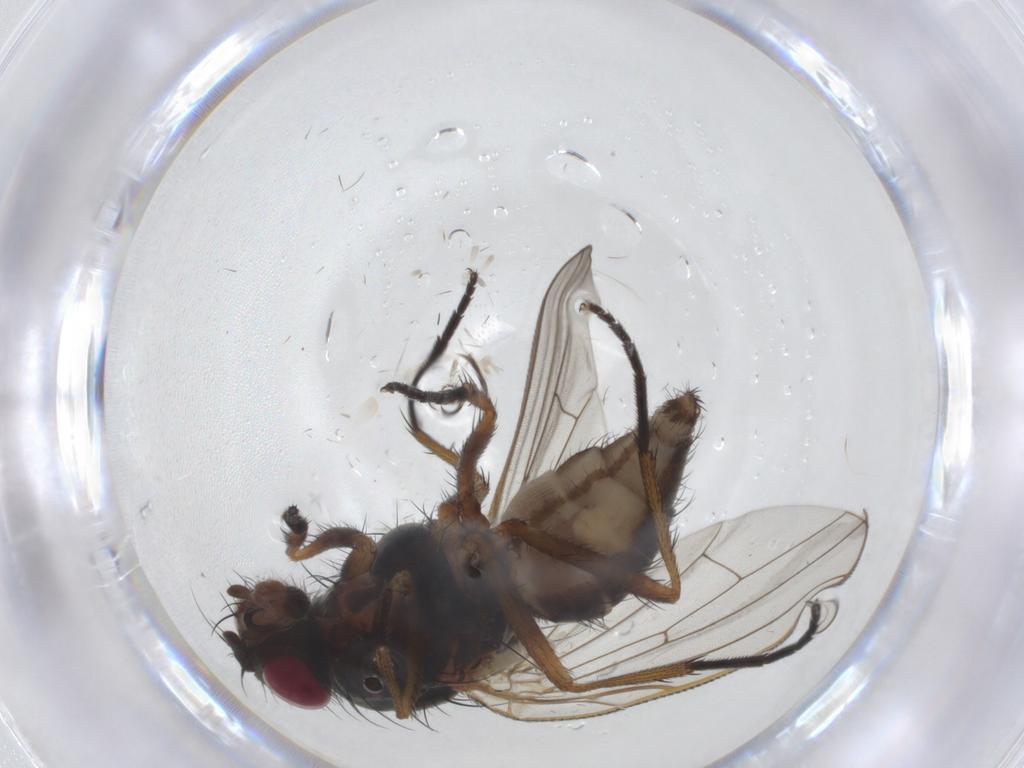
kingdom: Animalia
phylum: Arthropoda
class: Insecta
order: Diptera
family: Anthomyiidae
